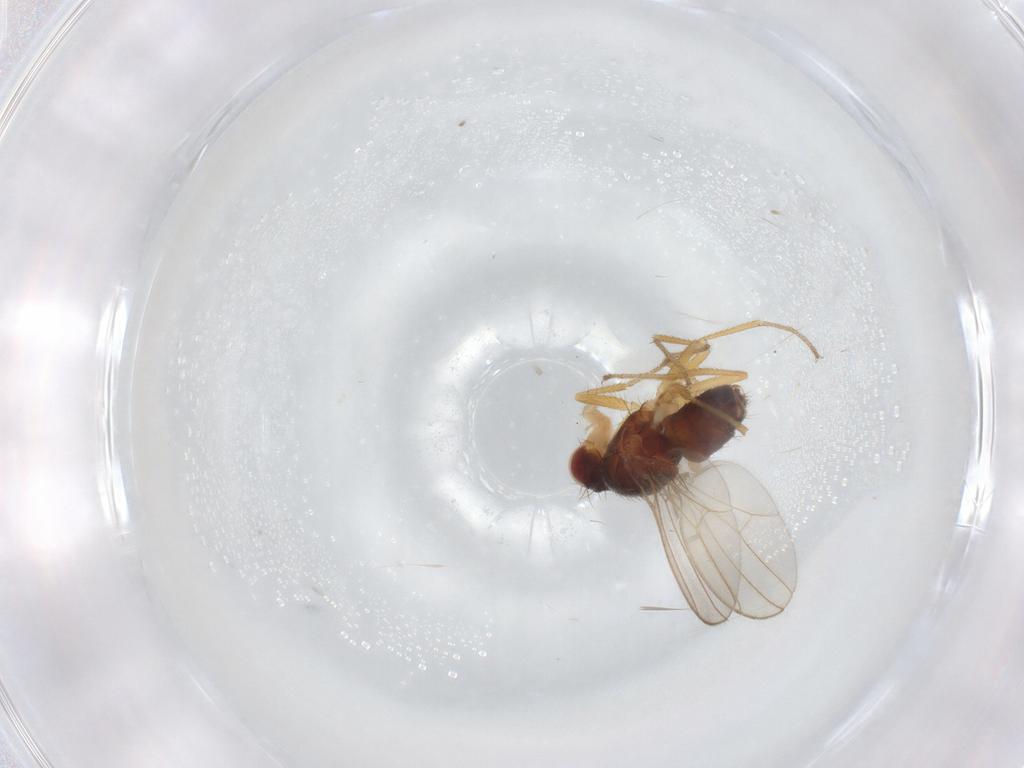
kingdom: Animalia
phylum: Arthropoda
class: Insecta
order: Diptera
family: Drosophilidae
